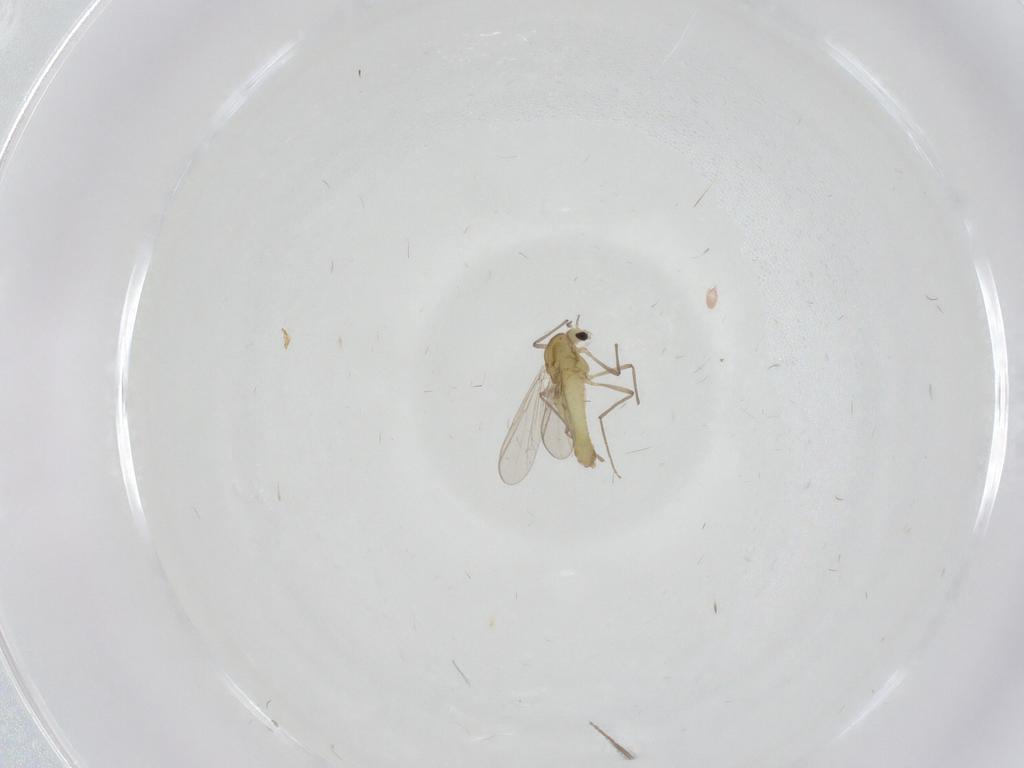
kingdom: Animalia
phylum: Arthropoda
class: Insecta
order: Diptera
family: Chironomidae
